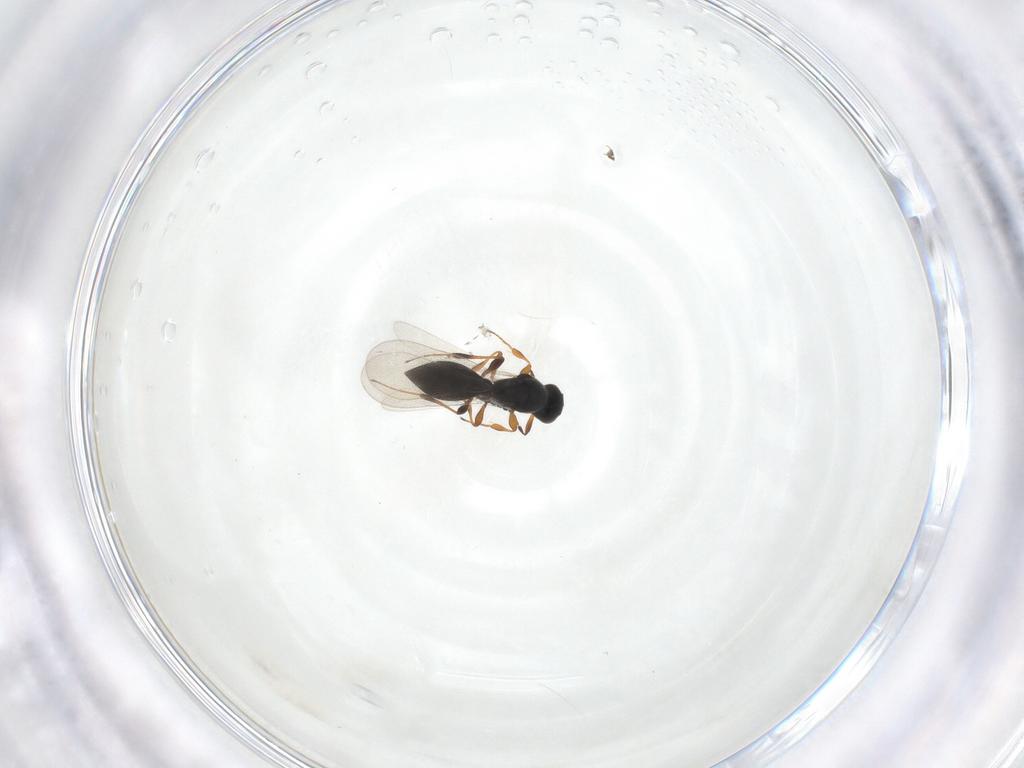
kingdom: Animalia
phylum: Arthropoda
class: Insecta
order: Hymenoptera
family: Platygastridae
